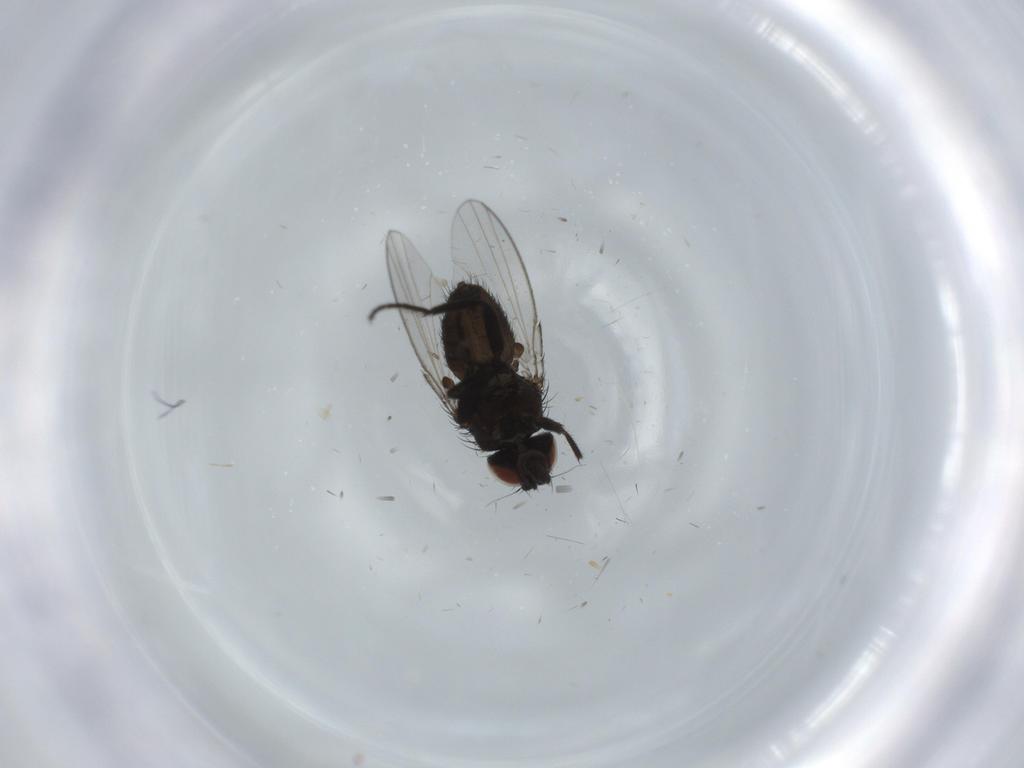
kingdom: Animalia
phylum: Arthropoda
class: Insecta
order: Diptera
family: Milichiidae
